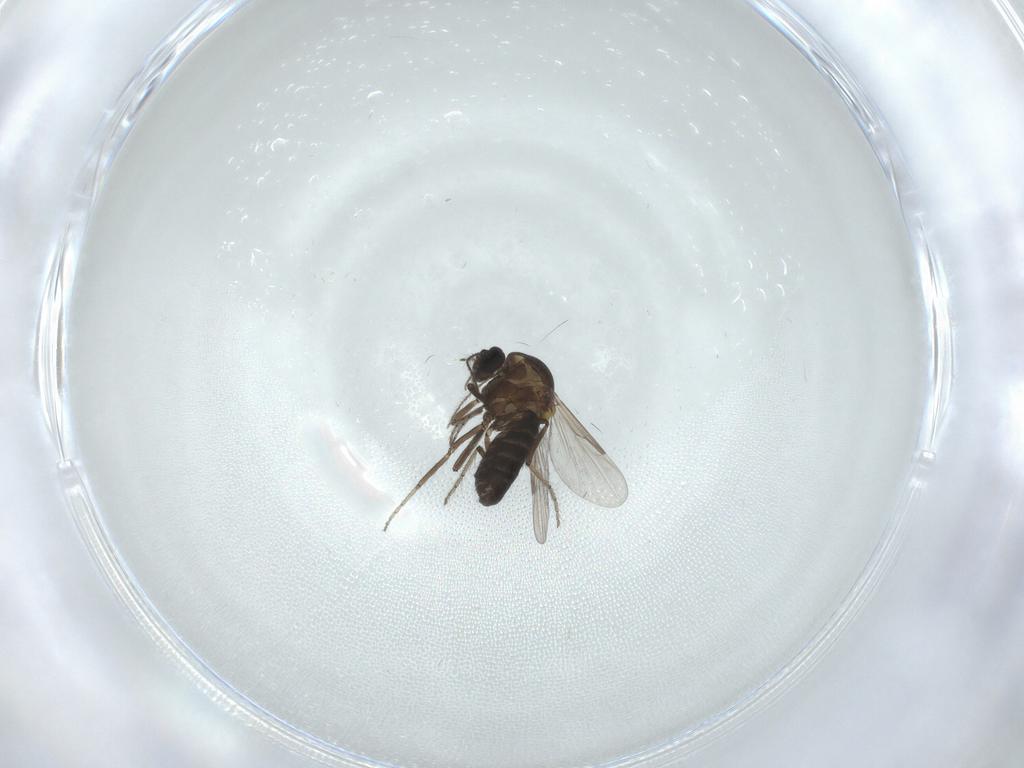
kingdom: Animalia
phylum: Arthropoda
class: Insecta
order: Diptera
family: Ceratopogonidae
